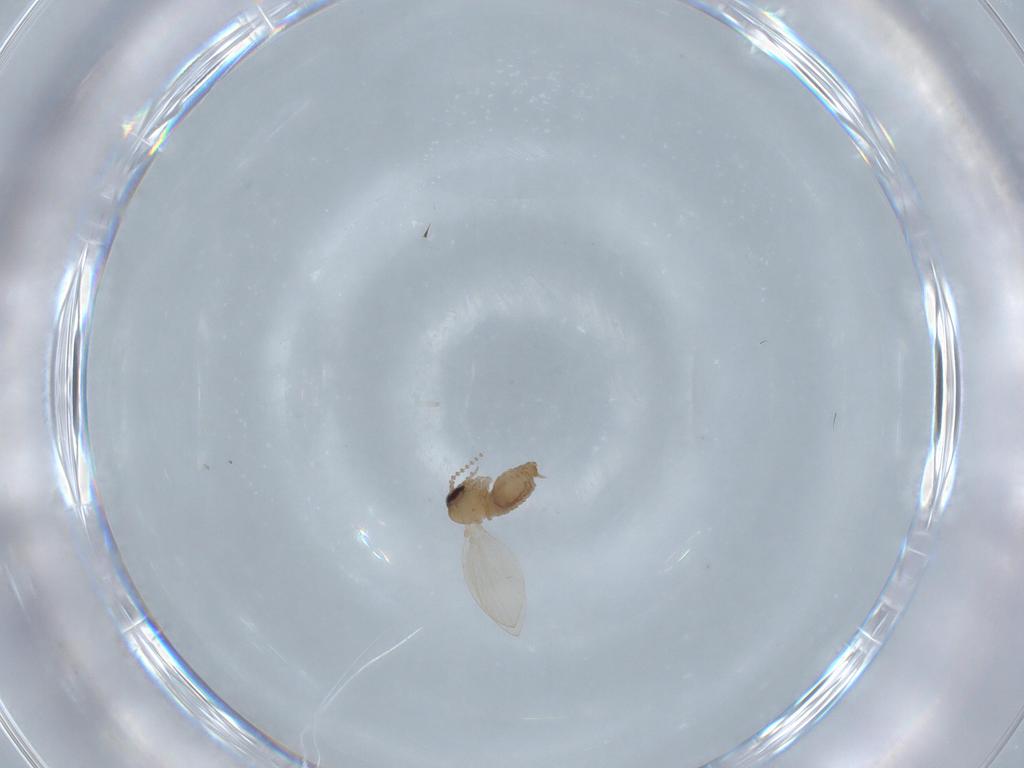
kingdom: Animalia
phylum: Arthropoda
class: Insecta
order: Diptera
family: Psychodidae
